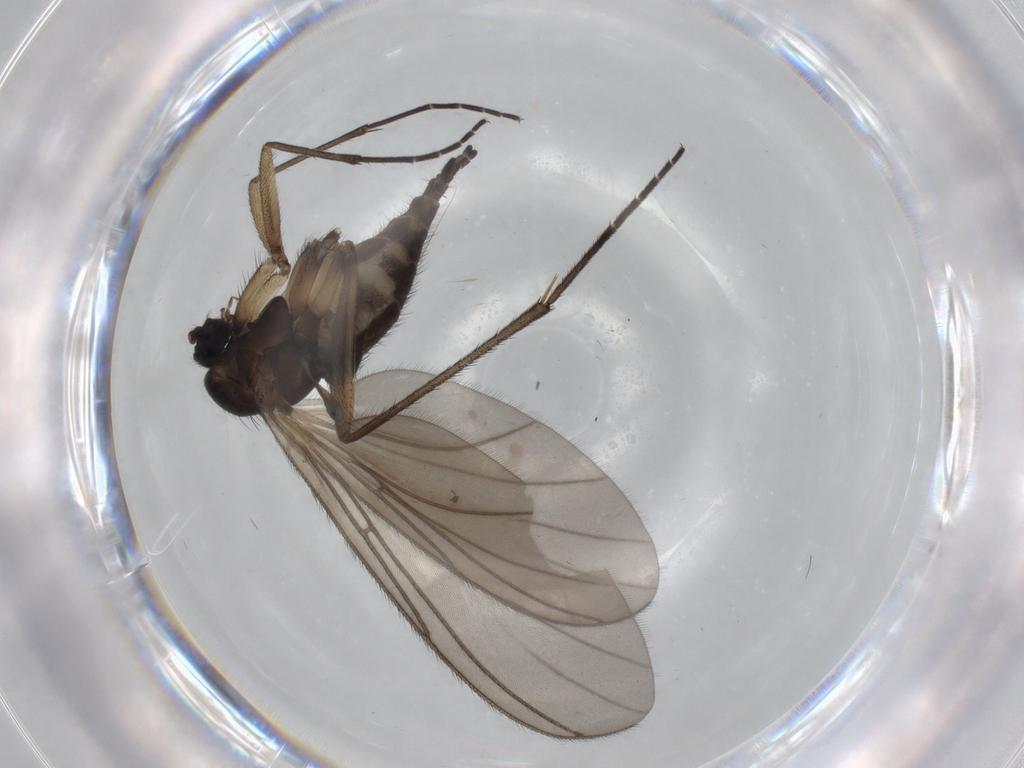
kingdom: Animalia
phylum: Arthropoda
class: Insecta
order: Diptera
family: Sciaridae
